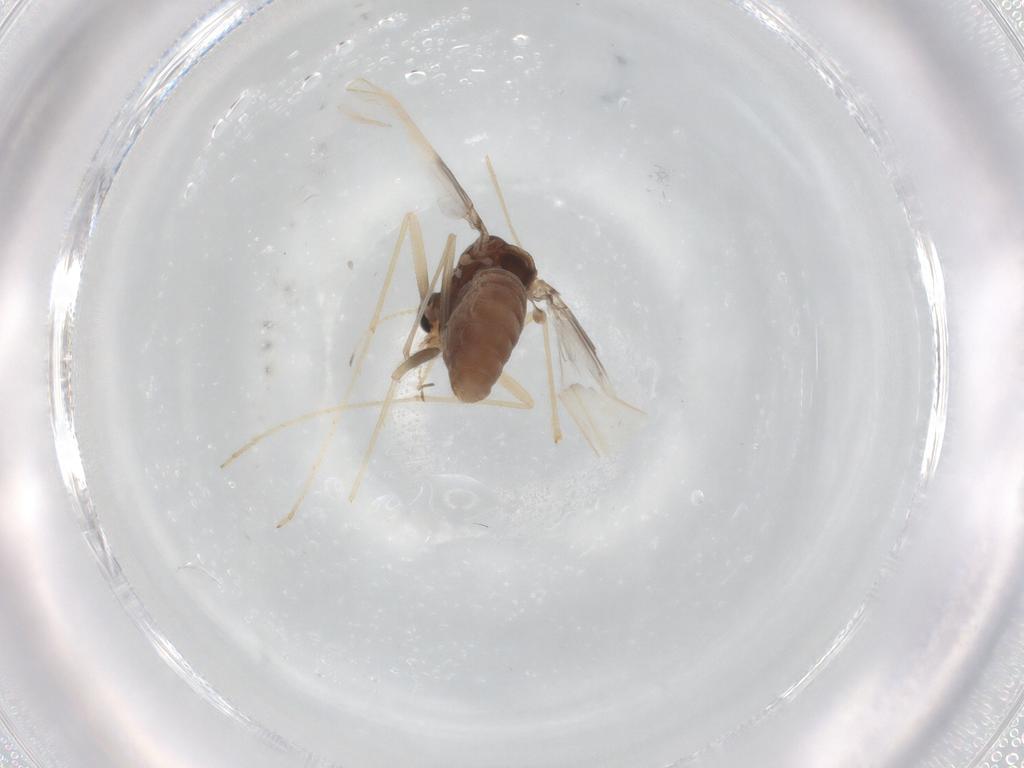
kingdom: Animalia
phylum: Arthropoda
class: Insecta
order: Diptera
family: Chironomidae
